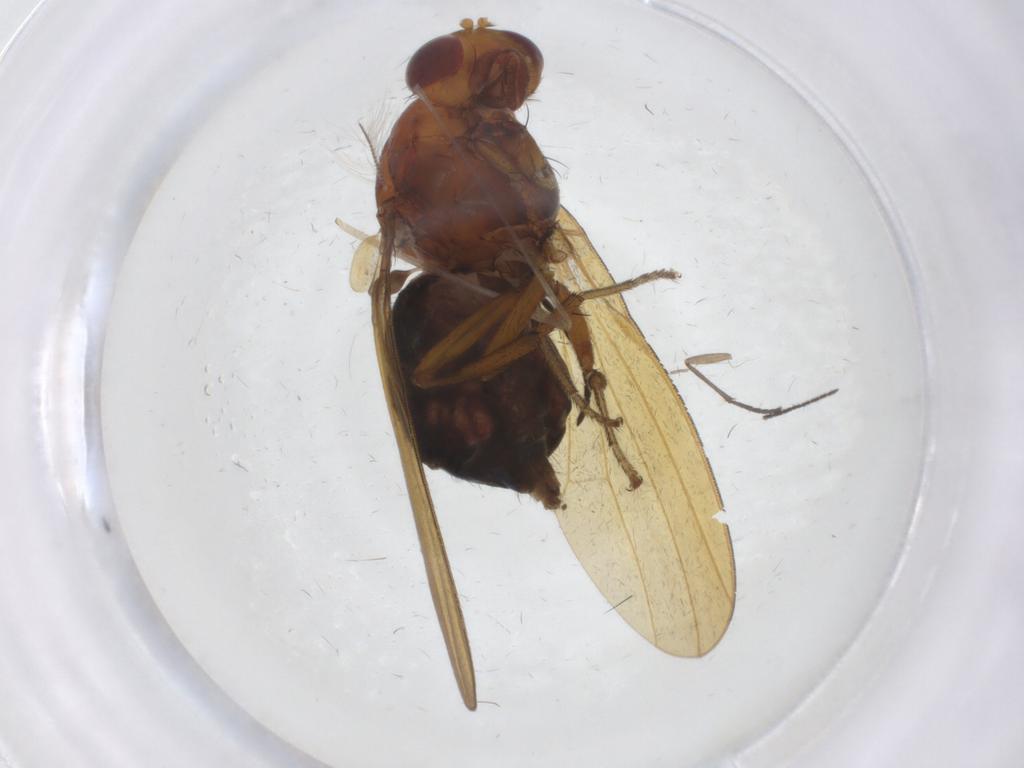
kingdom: Animalia
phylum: Arthropoda
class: Insecta
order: Diptera
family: Sciaridae
